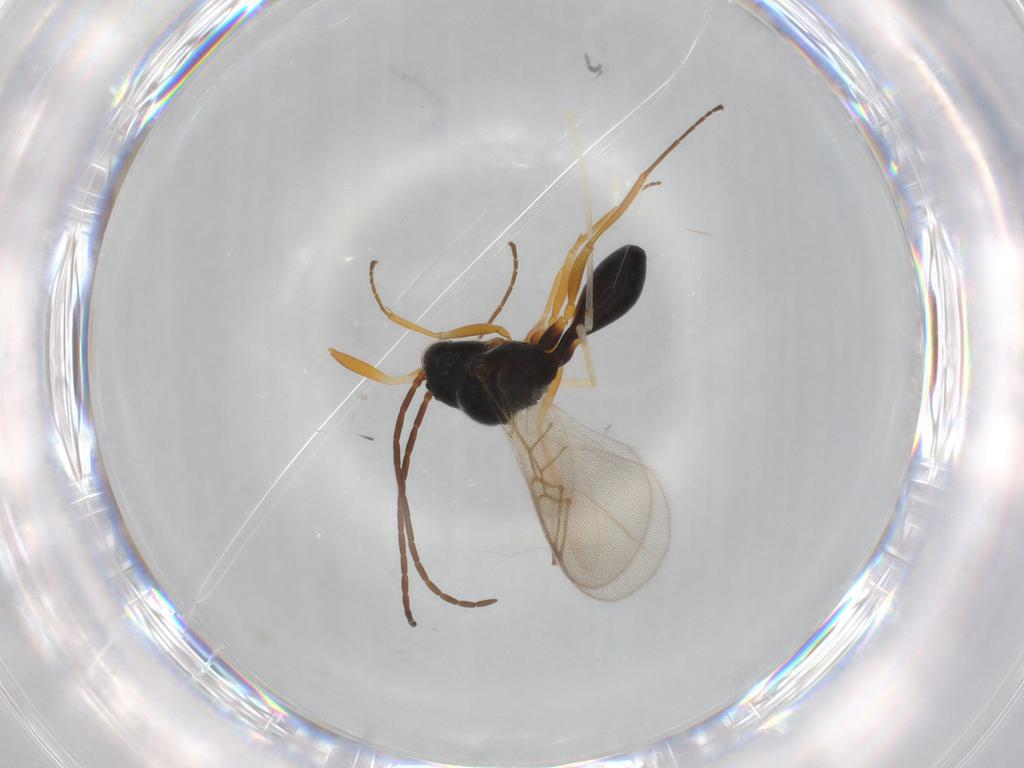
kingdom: Animalia
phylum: Arthropoda
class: Insecta
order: Hymenoptera
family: Figitidae
